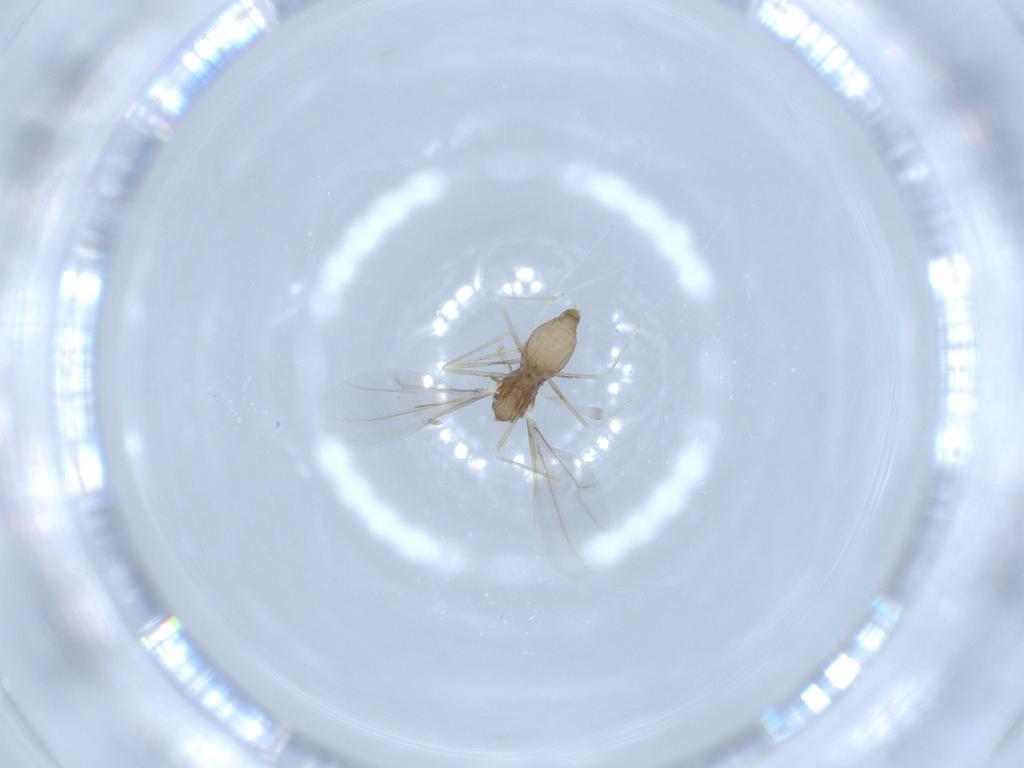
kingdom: Animalia
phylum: Arthropoda
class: Insecta
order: Diptera
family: Cecidomyiidae
